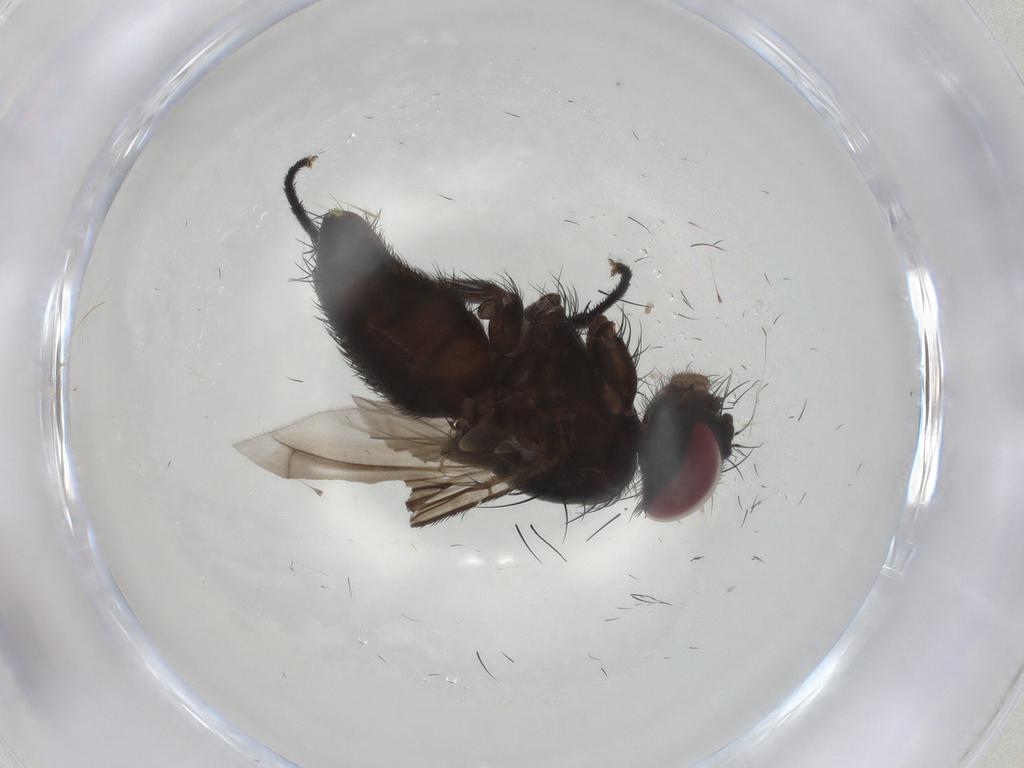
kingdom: Animalia
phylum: Arthropoda
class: Insecta
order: Diptera
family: Calliphoridae
